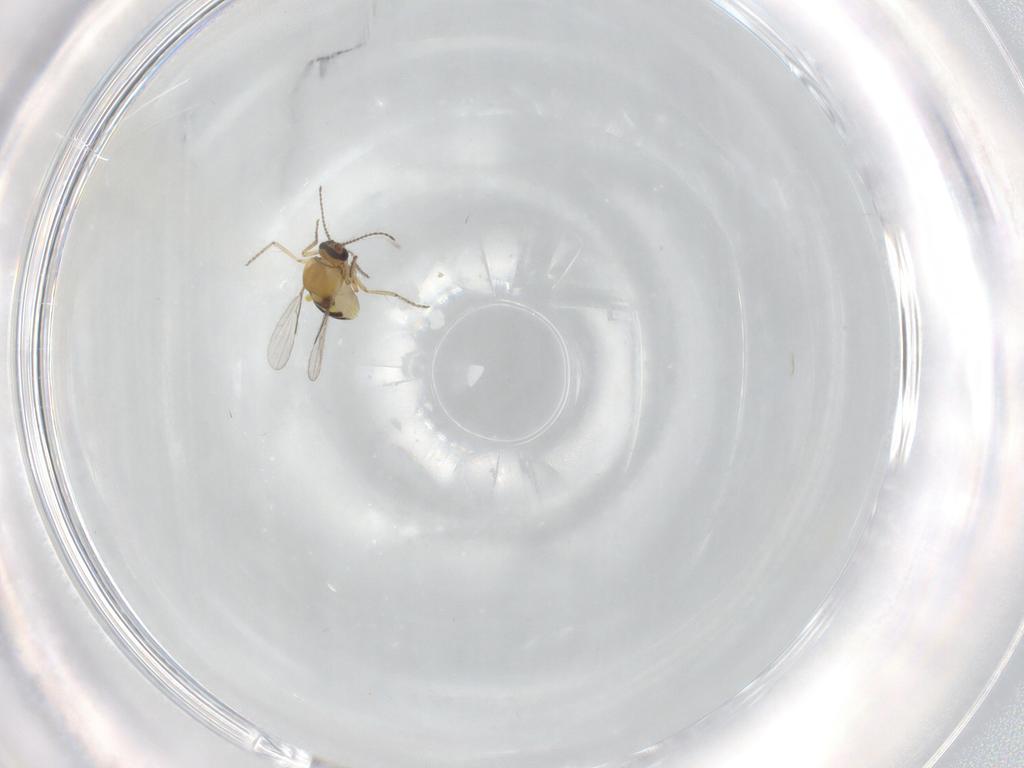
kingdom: Animalia
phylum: Arthropoda
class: Insecta
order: Diptera
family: Ceratopogonidae
